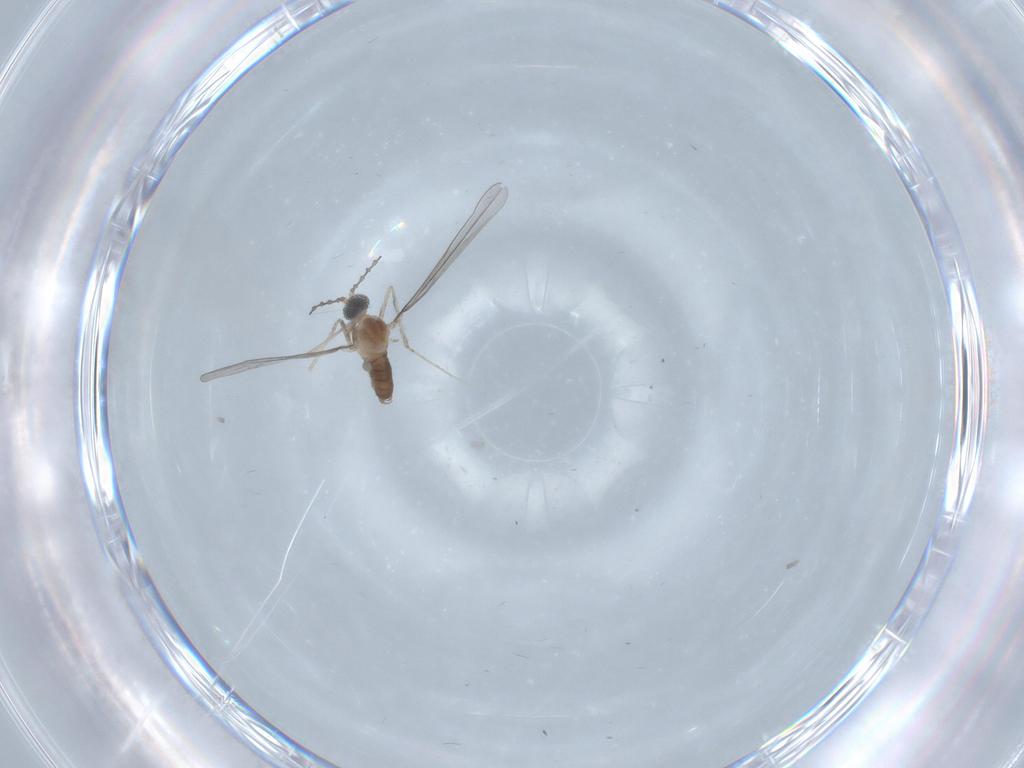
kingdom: Animalia
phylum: Arthropoda
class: Insecta
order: Diptera
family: Cecidomyiidae
